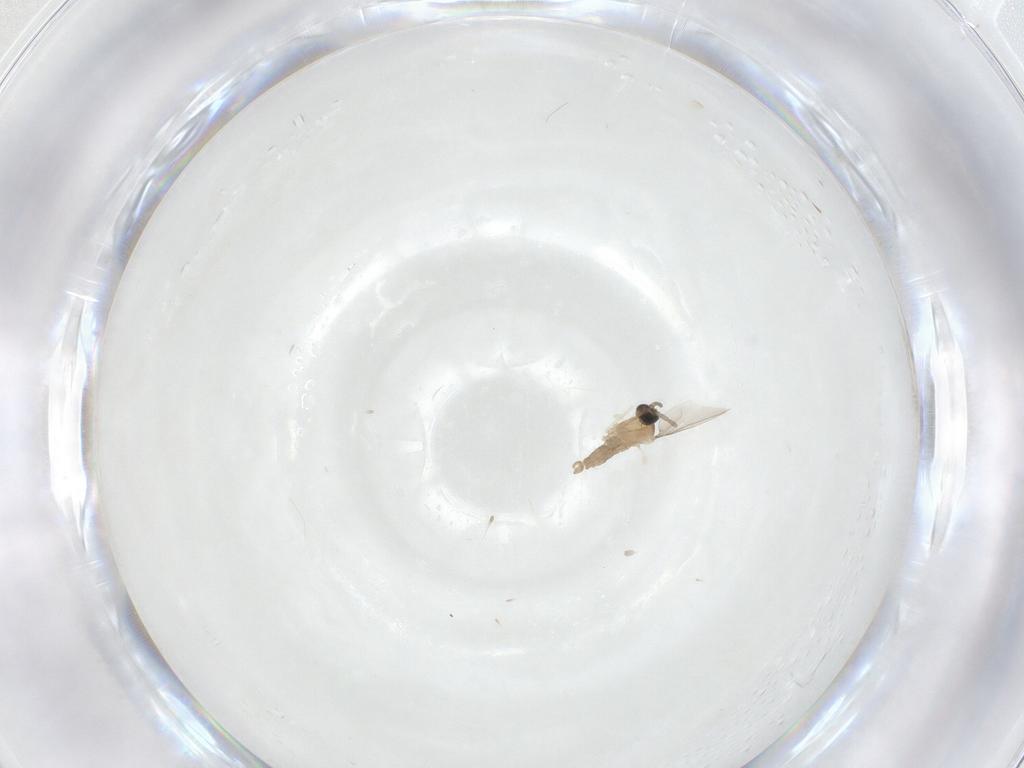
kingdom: Animalia
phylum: Arthropoda
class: Insecta
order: Diptera
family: Cecidomyiidae
